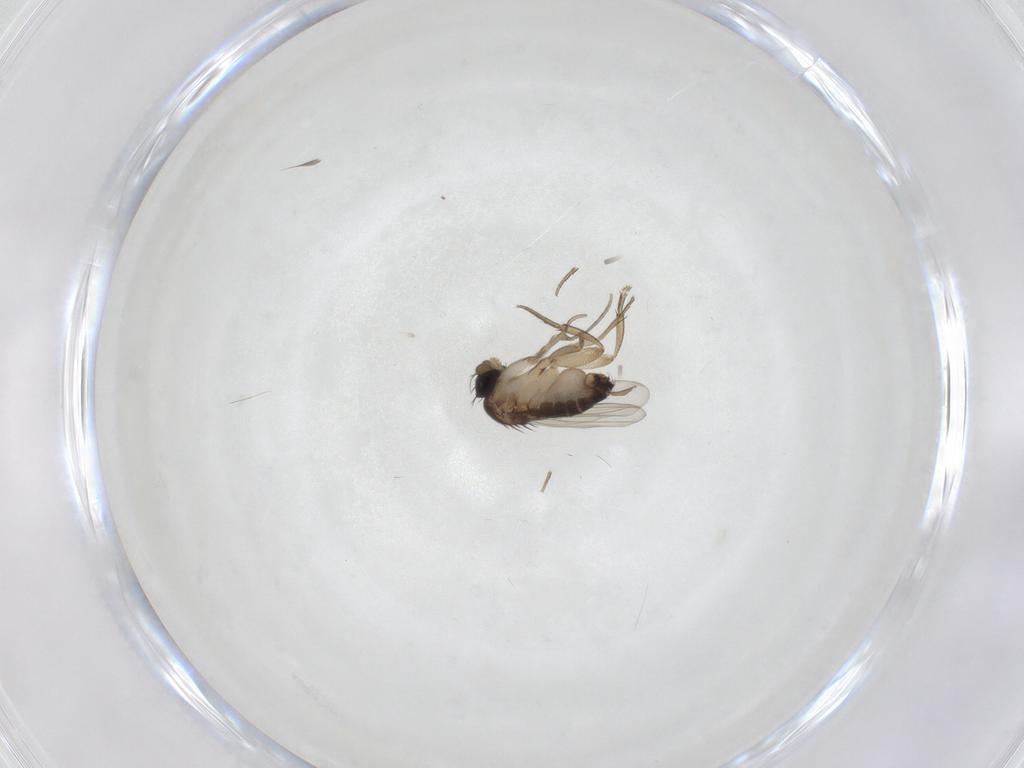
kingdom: Animalia
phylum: Arthropoda
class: Insecta
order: Diptera
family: Phoridae
